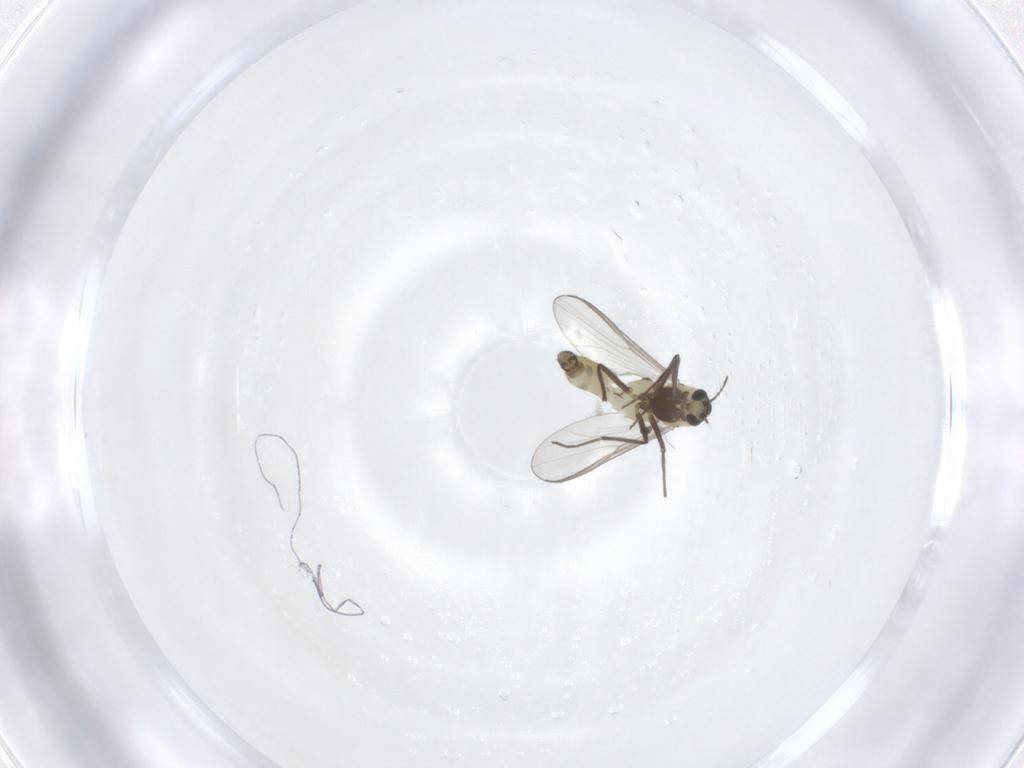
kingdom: Animalia
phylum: Arthropoda
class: Insecta
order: Diptera
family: Chironomidae
